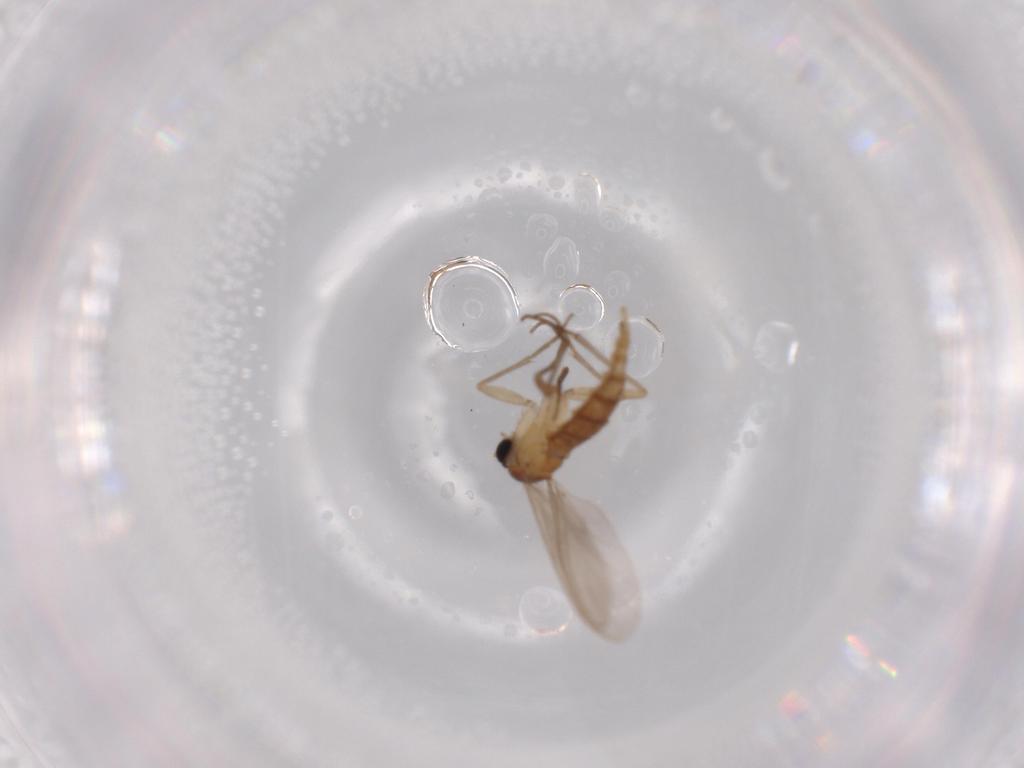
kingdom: Animalia
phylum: Arthropoda
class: Insecta
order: Diptera
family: Sciaridae
